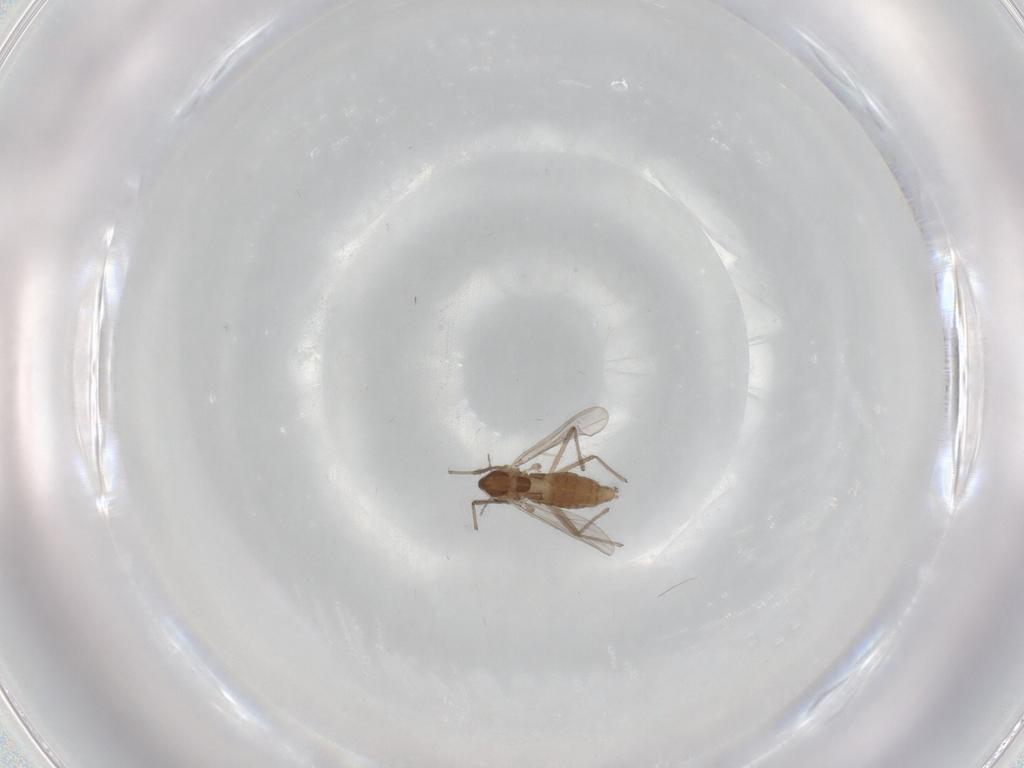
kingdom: Animalia
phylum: Arthropoda
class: Insecta
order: Diptera
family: Chironomidae
